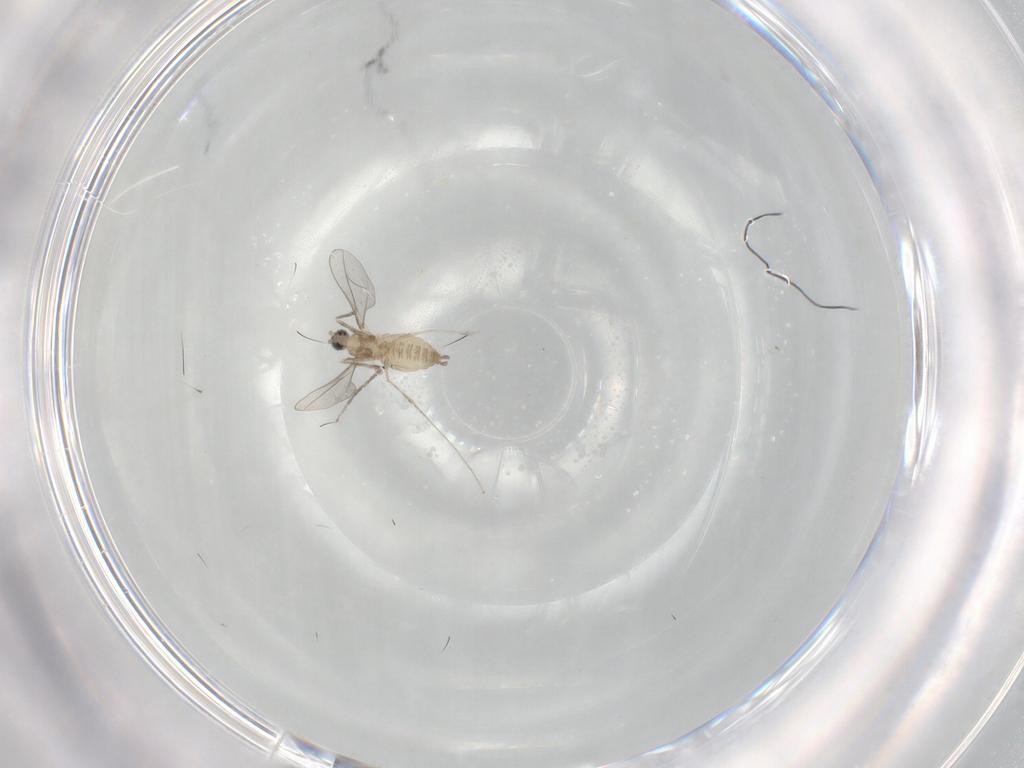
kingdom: Animalia
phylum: Arthropoda
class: Insecta
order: Diptera
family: Cecidomyiidae
